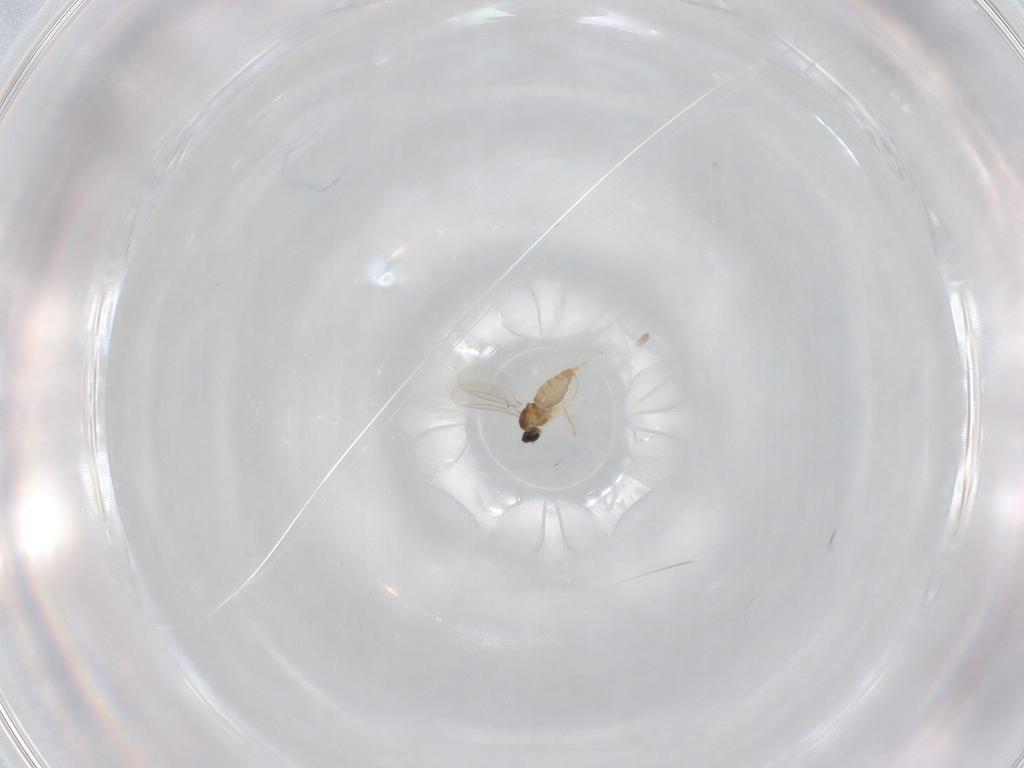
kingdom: Animalia
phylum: Arthropoda
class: Insecta
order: Diptera
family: Cecidomyiidae
